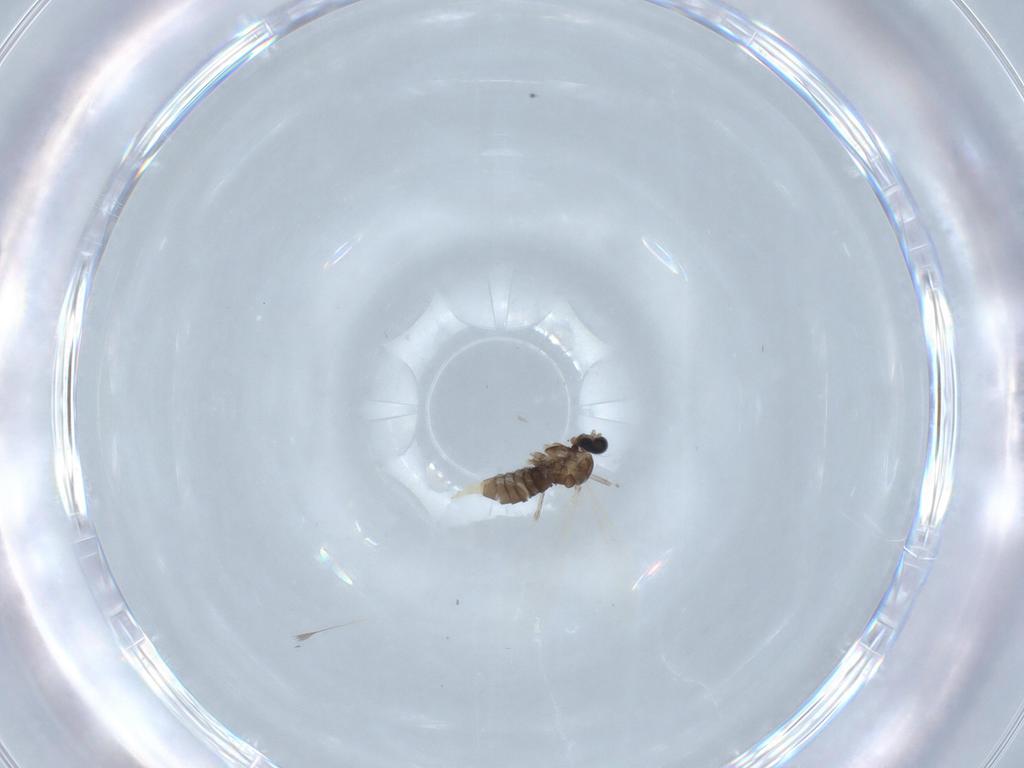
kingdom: Animalia
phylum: Arthropoda
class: Insecta
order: Diptera
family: Cecidomyiidae
